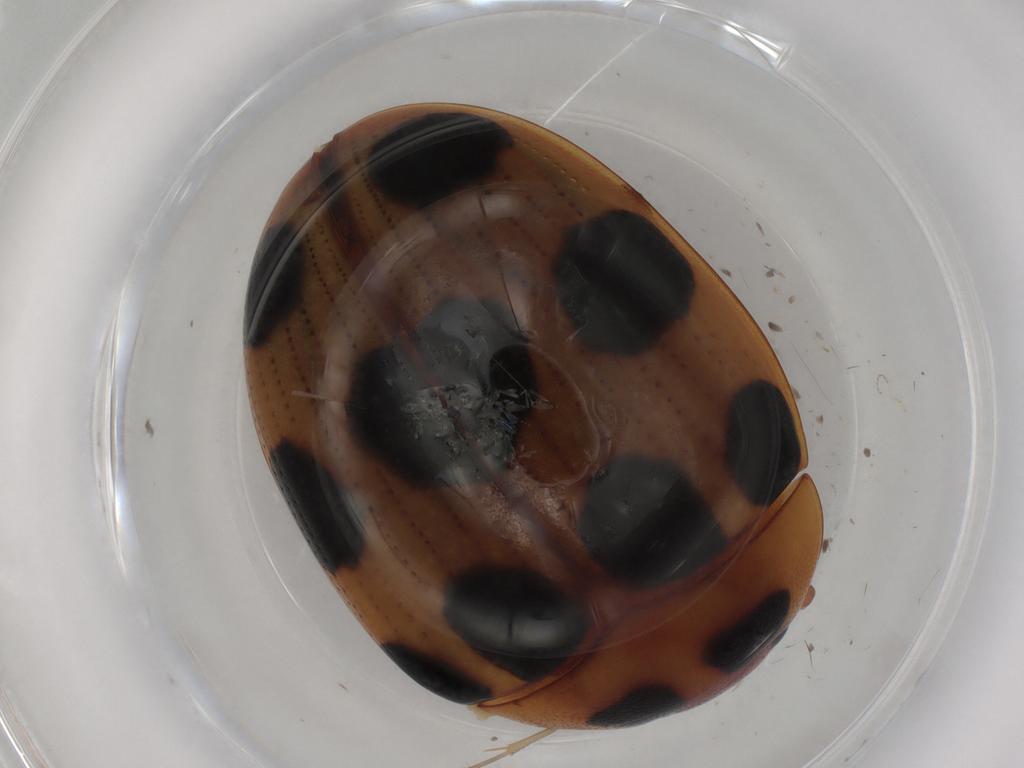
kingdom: Animalia
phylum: Arthropoda
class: Insecta
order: Coleoptera
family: Erotylidae
